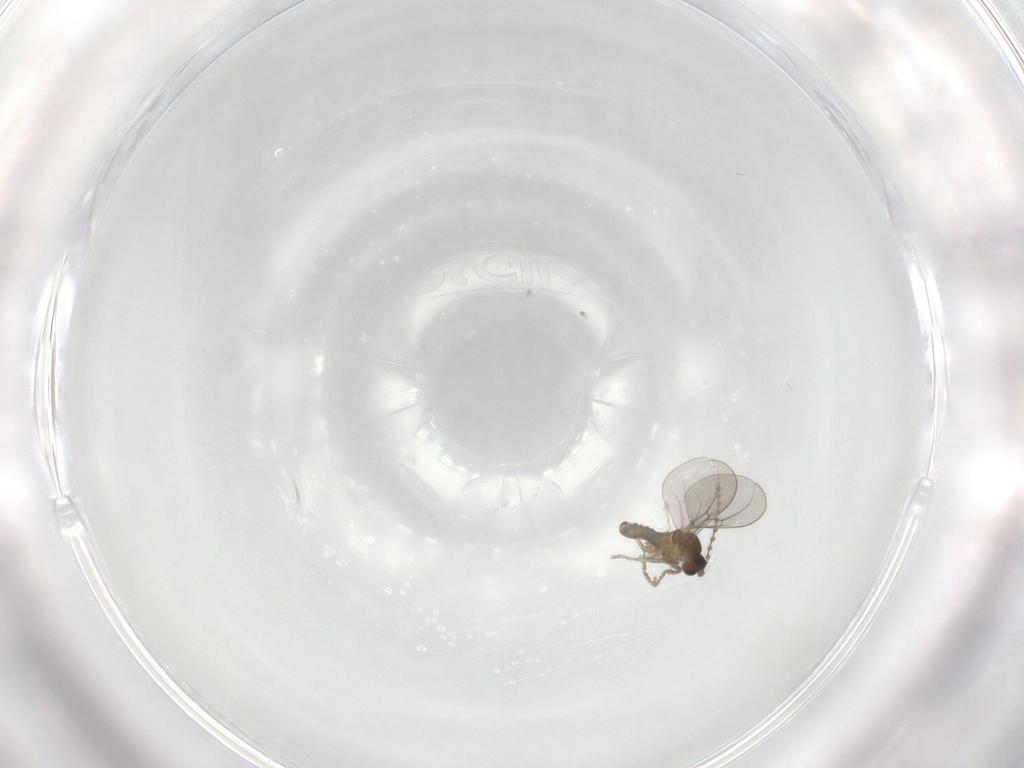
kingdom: Animalia
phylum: Arthropoda
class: Insecta
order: Diptera
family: Cecidomyiidae
